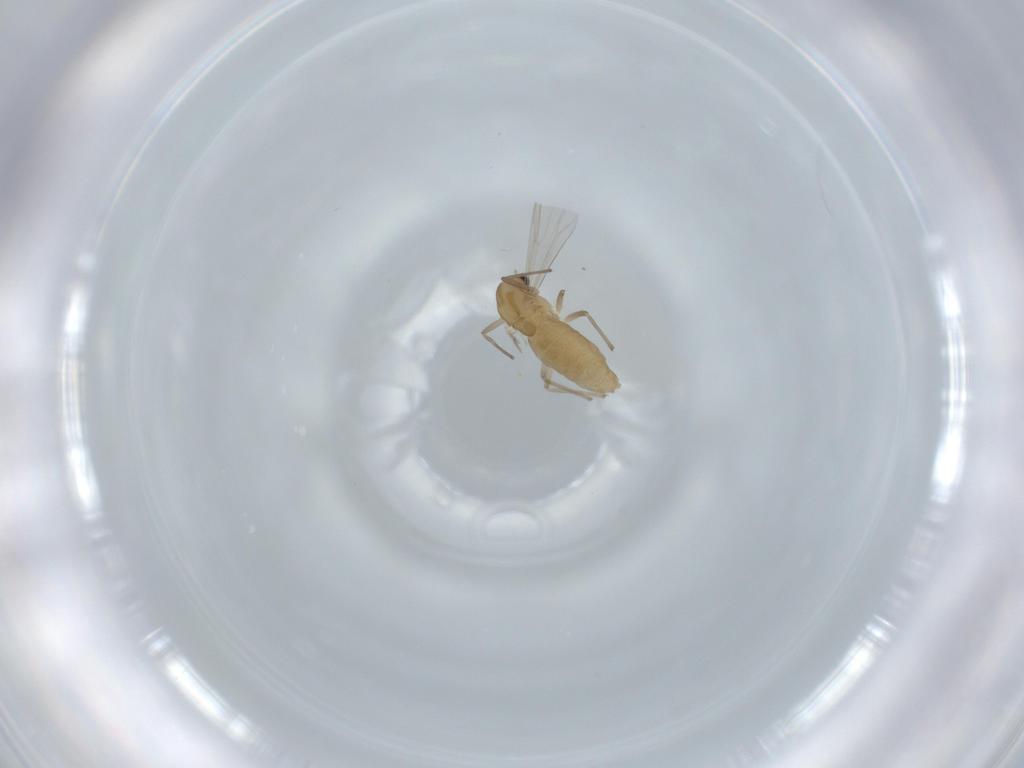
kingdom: Animalia
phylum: Arthropoda
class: Insecta
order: Diptera
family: Chironomidae
